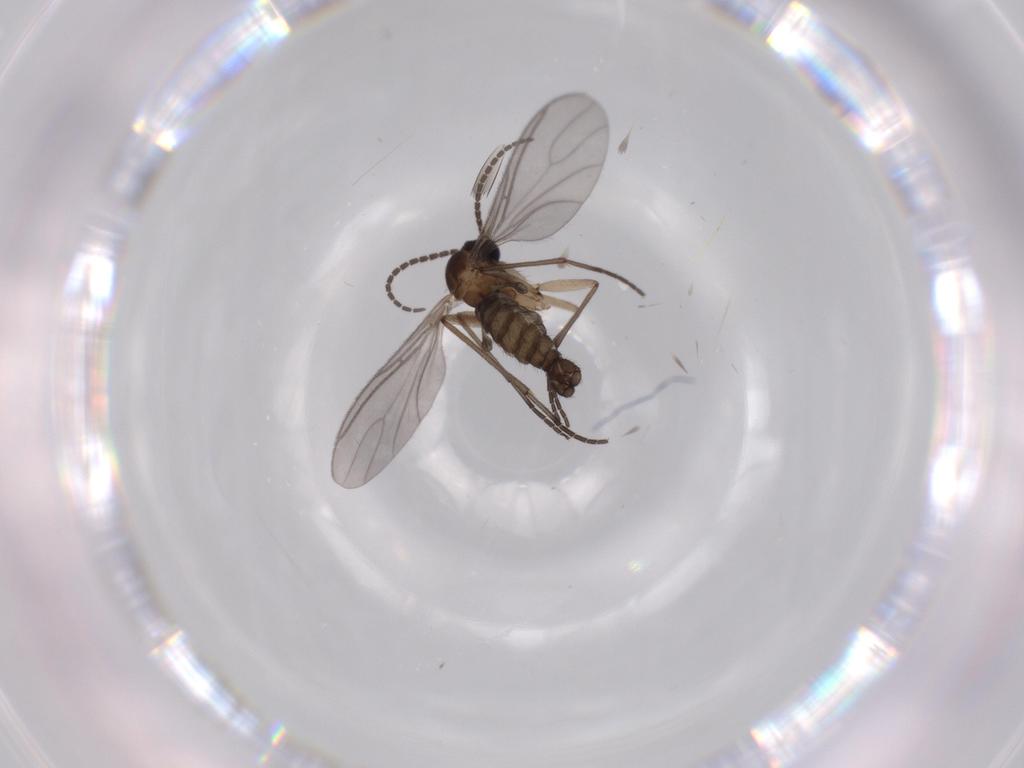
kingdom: Animalia
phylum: Arthropoda
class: Insecta
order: Diptera
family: Sciaridae
